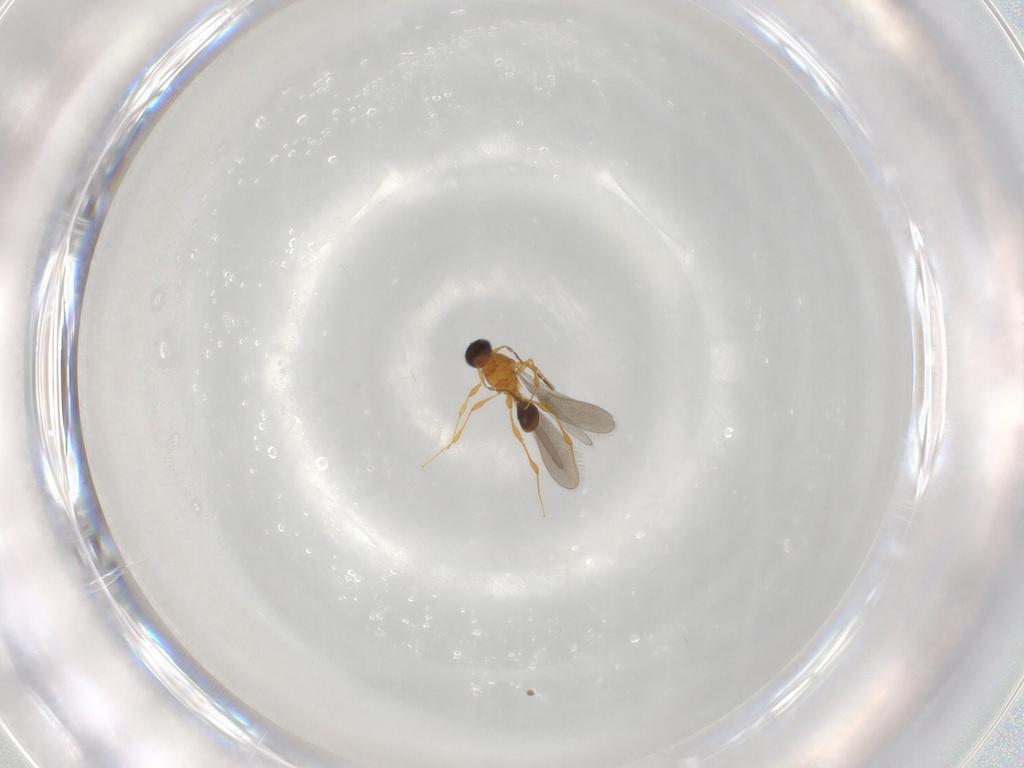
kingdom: Animalia
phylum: Arthropoda
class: Insecta
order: Hymenoptera
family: Platygastridae
